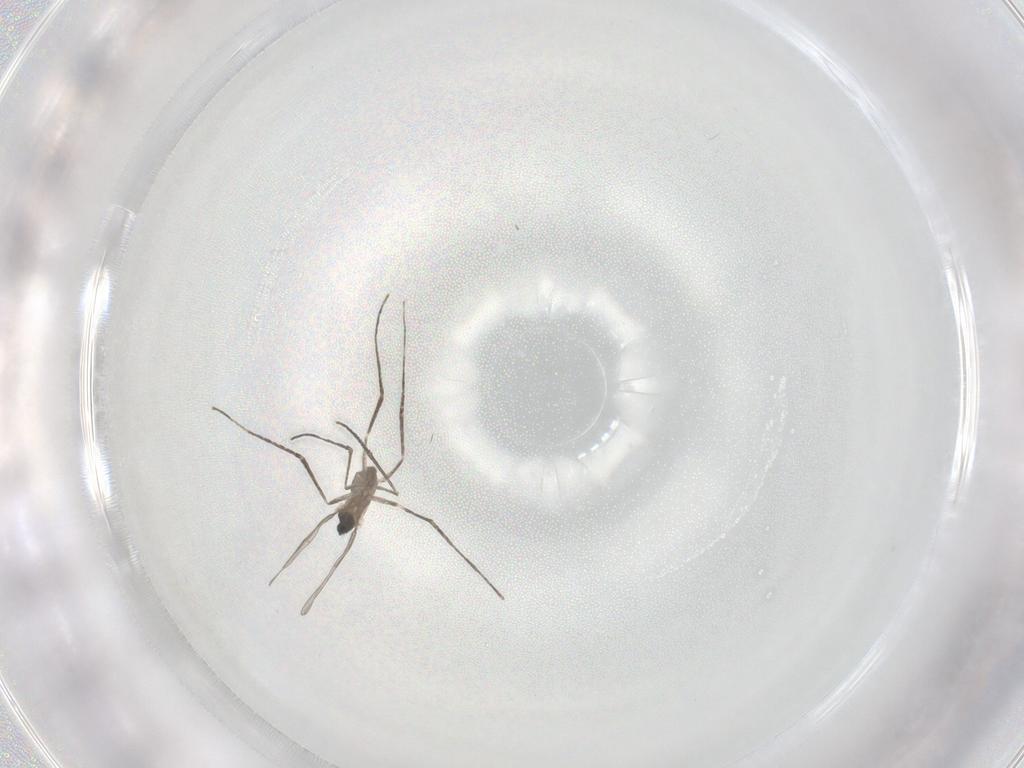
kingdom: Animalia
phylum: Arthropoda
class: Insecta
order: Diptera
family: Cecidomyiidae
